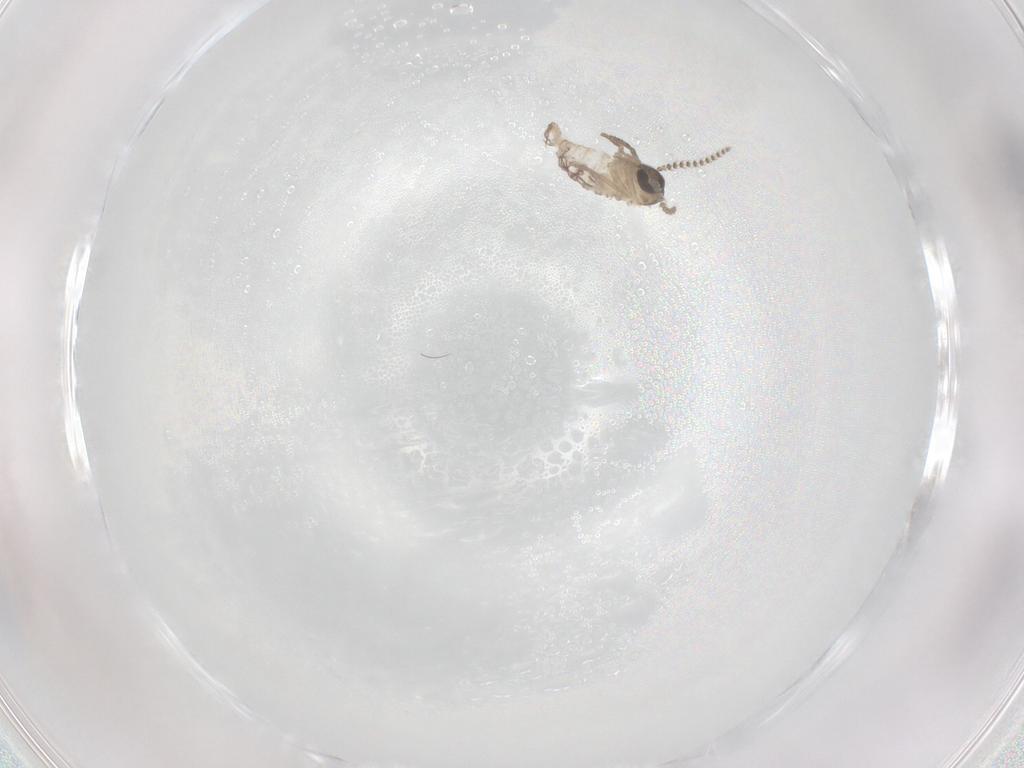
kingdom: Animalia
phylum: Arthropoda
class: Insecta
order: Diptera
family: Psychodidae
